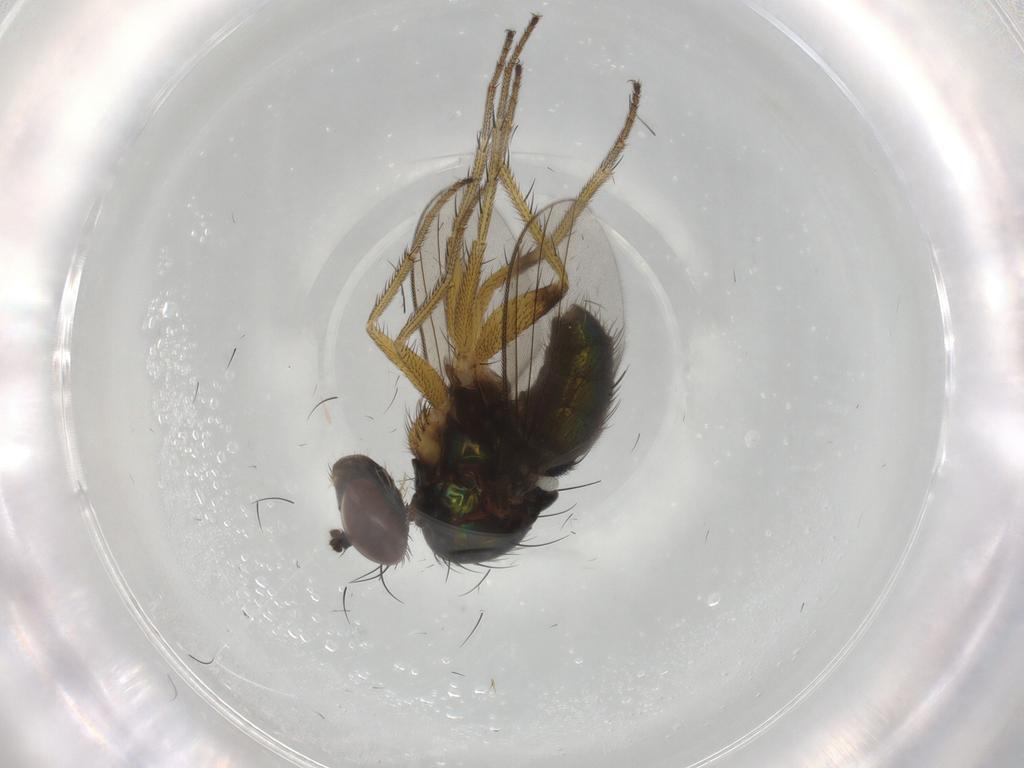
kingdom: Animalia
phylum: Arthropoda
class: Insecta
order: Diptera
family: Dolichopodidae
